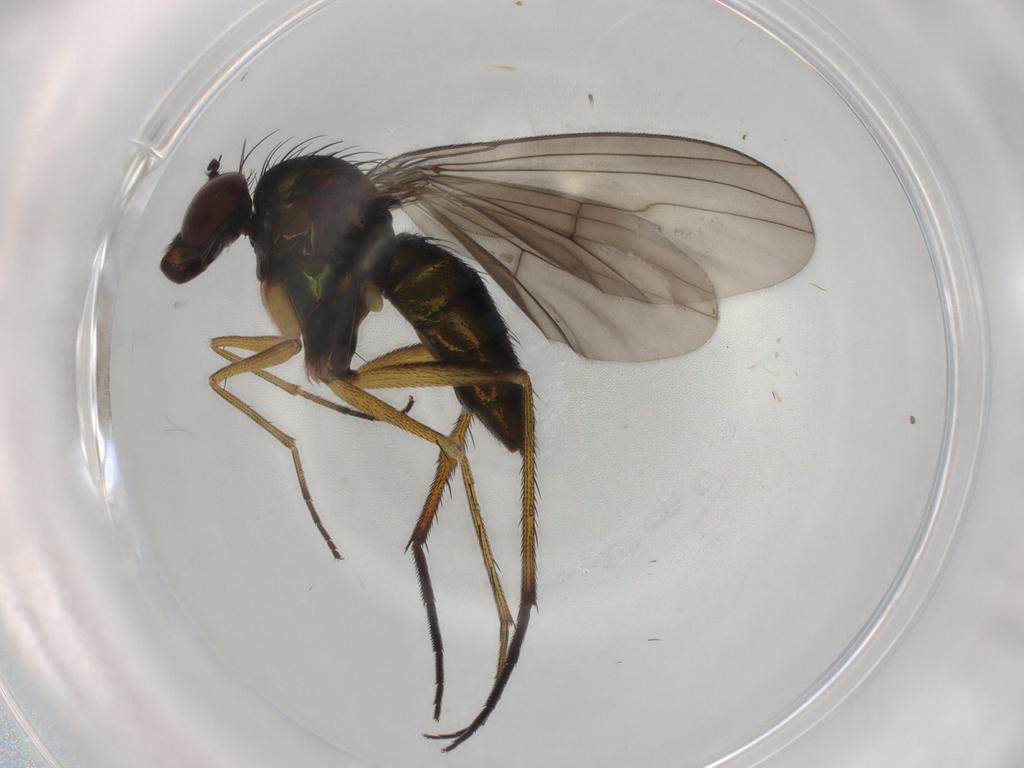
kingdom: Animalia
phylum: Arthropoda
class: Insecta
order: Diptera
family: Dolichopodidae
